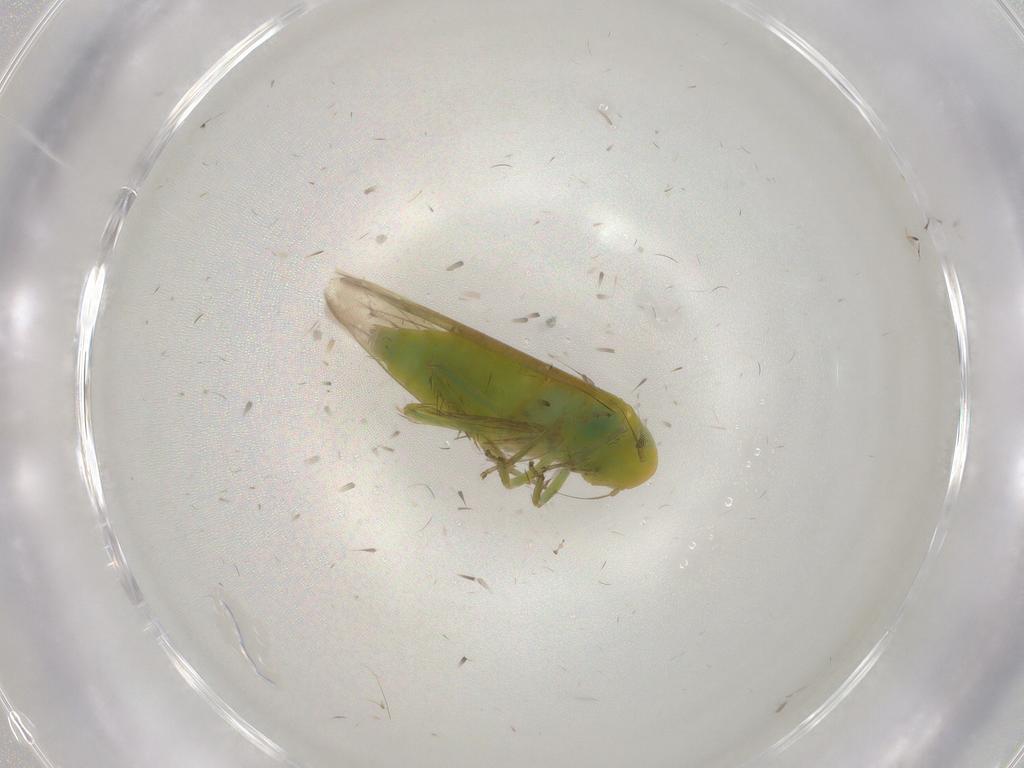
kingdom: Animalia
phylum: Arthropoda
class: Insecta
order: Hemiptera
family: Cicadellidae
